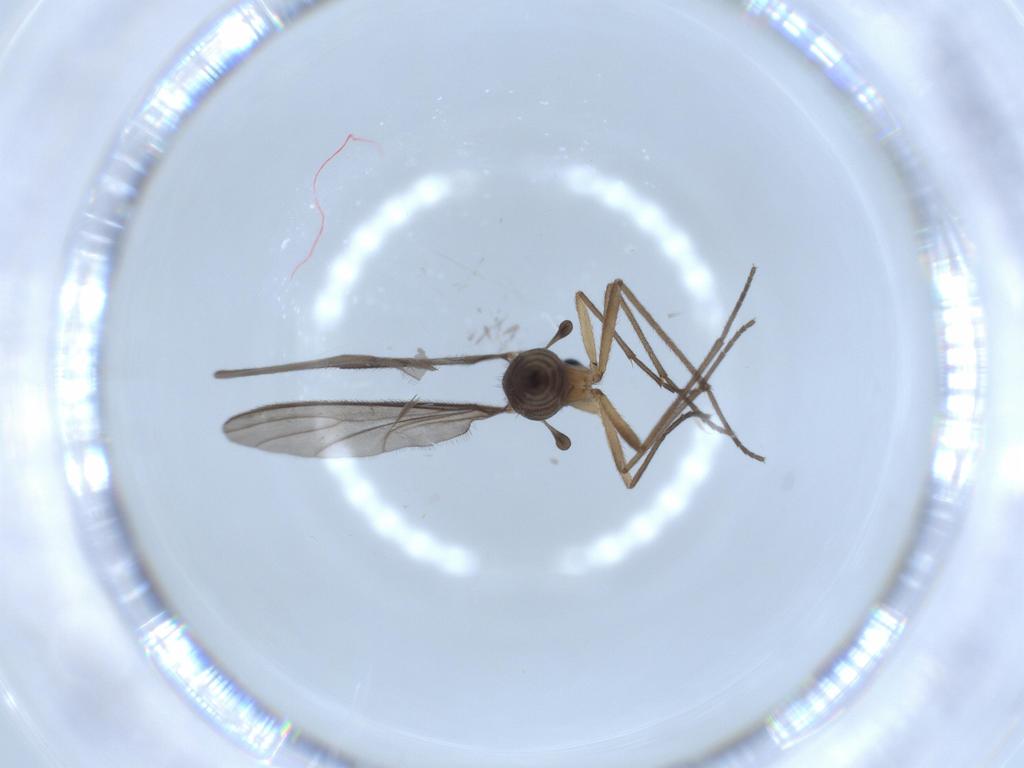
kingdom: Animalia
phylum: Arthropoda
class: Insecta
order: Diptera
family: Sciaridae
